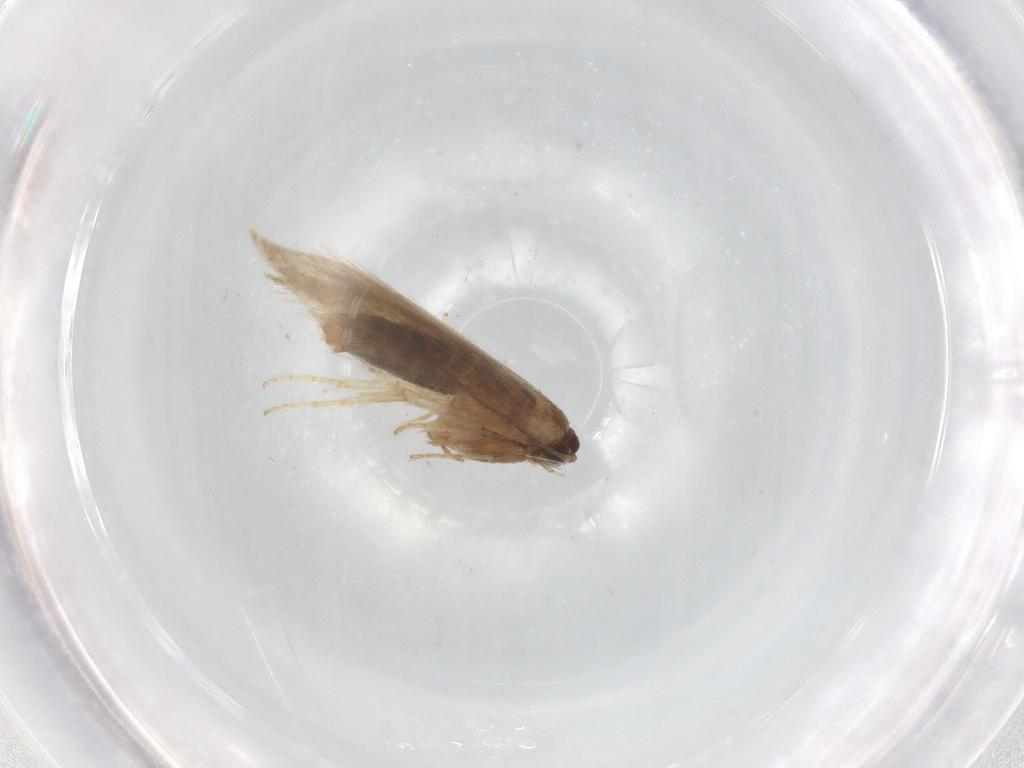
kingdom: Animalia
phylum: Arthropoda
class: Insecta
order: Lepidoptera
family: Nepticulidae
